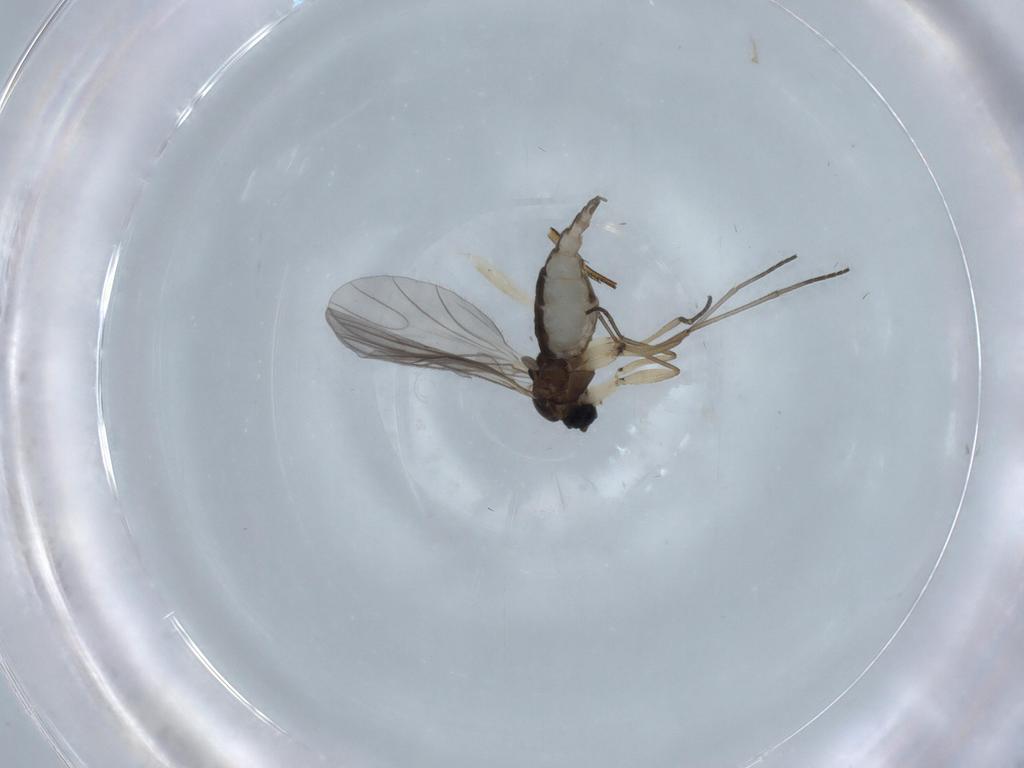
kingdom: Animalia
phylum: Arthropoda
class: Insecta
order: Diptera
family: Sciaridae
